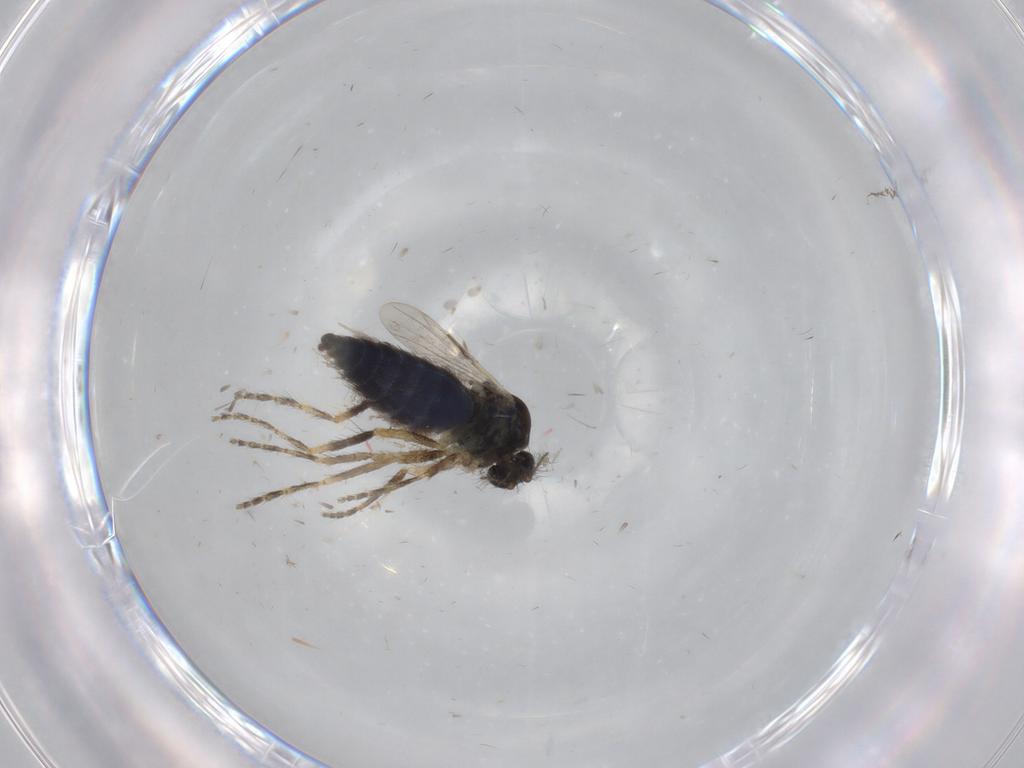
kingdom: Animalia
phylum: Arthropoda
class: Insecta
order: Diptera
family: Ceratopogonidae
